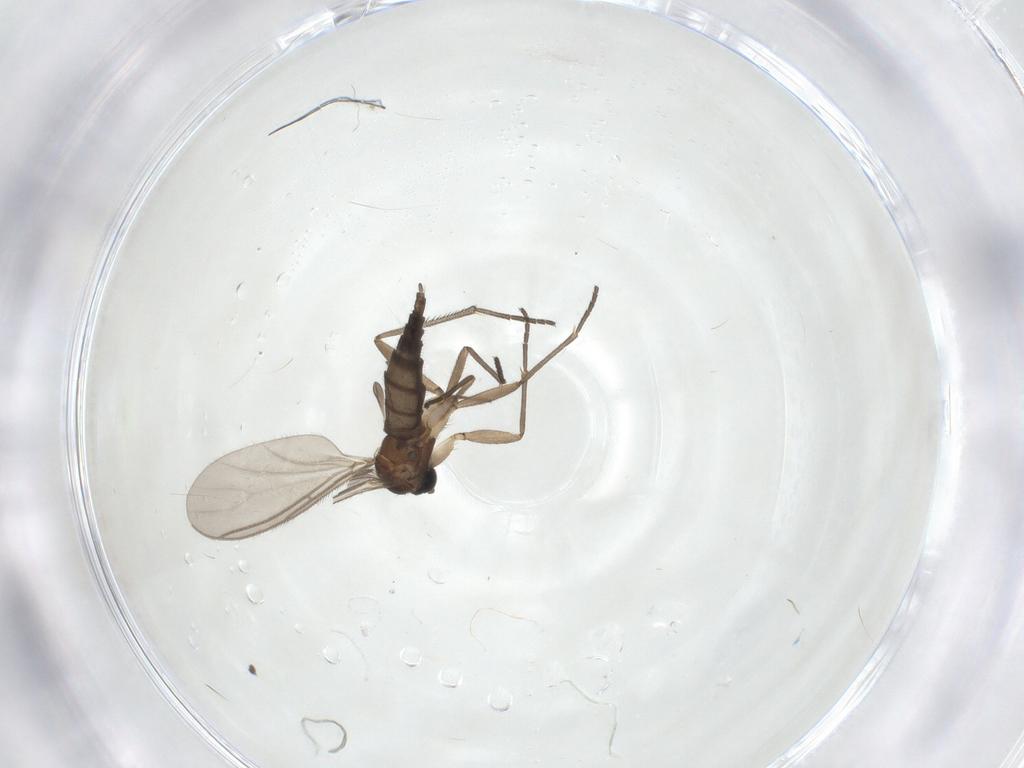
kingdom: Animalia
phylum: Arthropoda
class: Insecta
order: Diptera
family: Sciaridae
